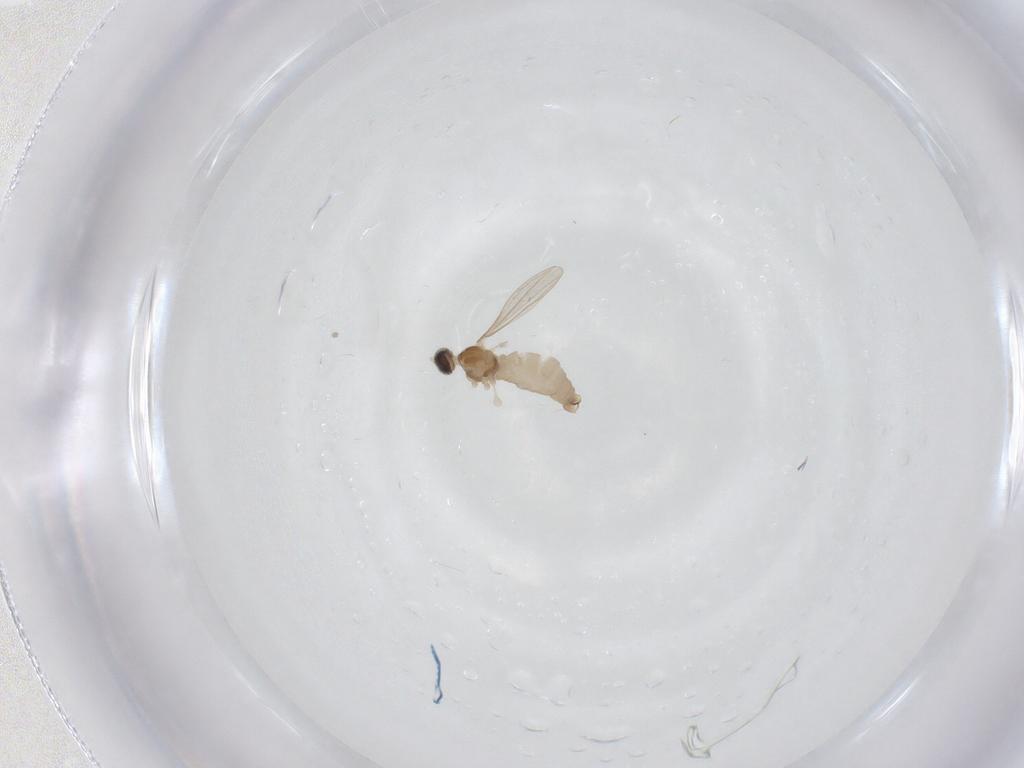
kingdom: Animalia
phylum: Arthropoda
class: Insecta
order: Diptera
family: Cecidomyiidae
